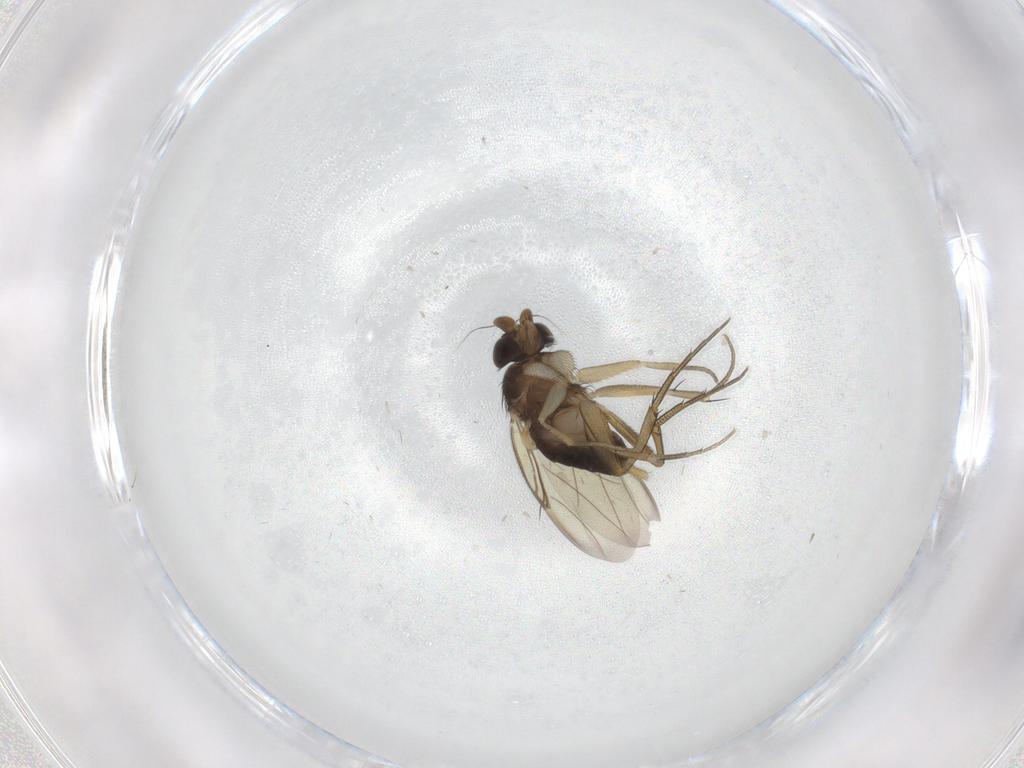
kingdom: Animalia
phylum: Arthropoda
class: Insecta
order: Diptera
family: Phoridae
